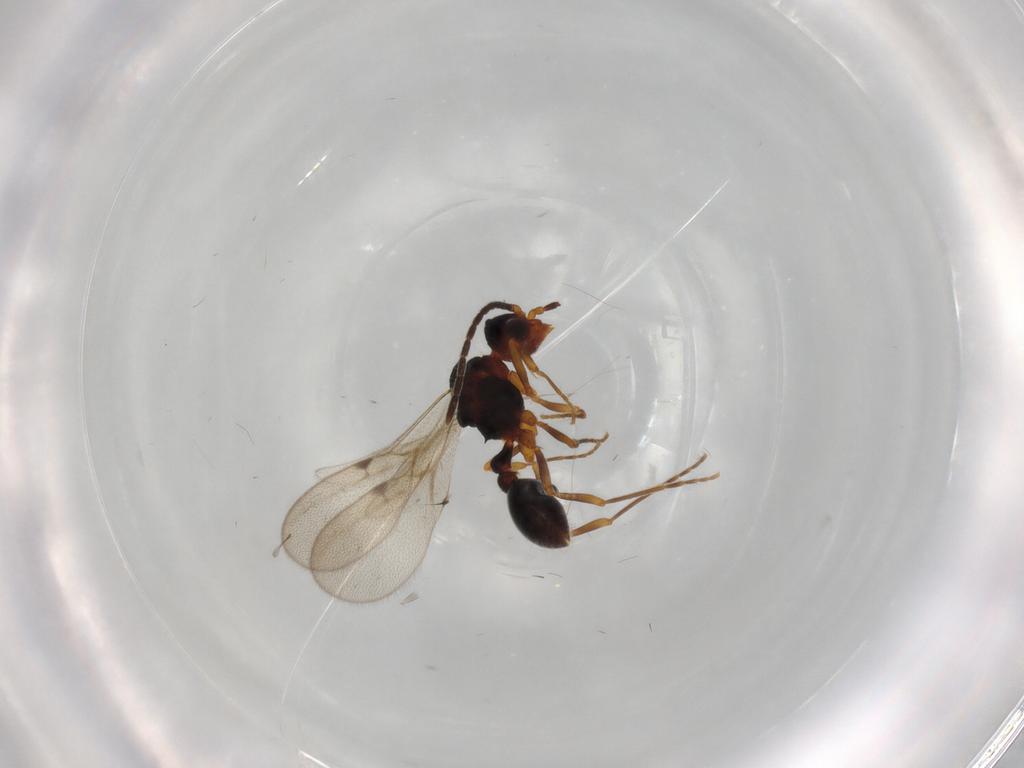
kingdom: Animalia
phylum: Arthropoda
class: Insecta
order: Hymenoptera
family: Formicidae
